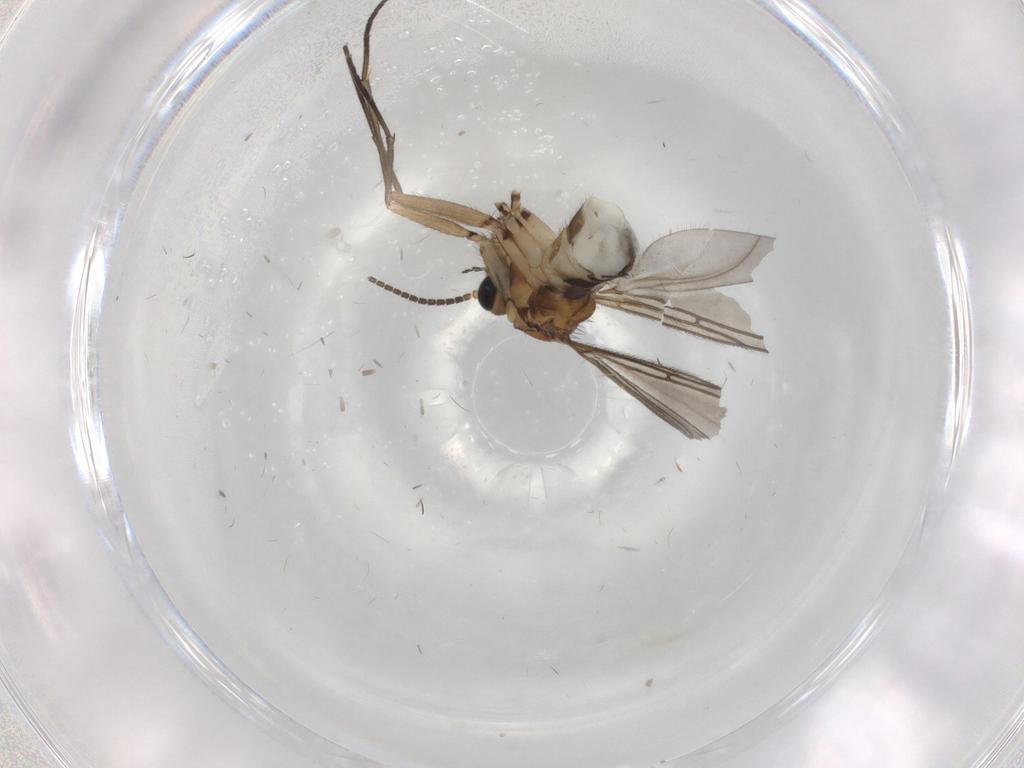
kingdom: Animalia
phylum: Arthropoda
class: Insecta
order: Diptera
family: Sciaridae
